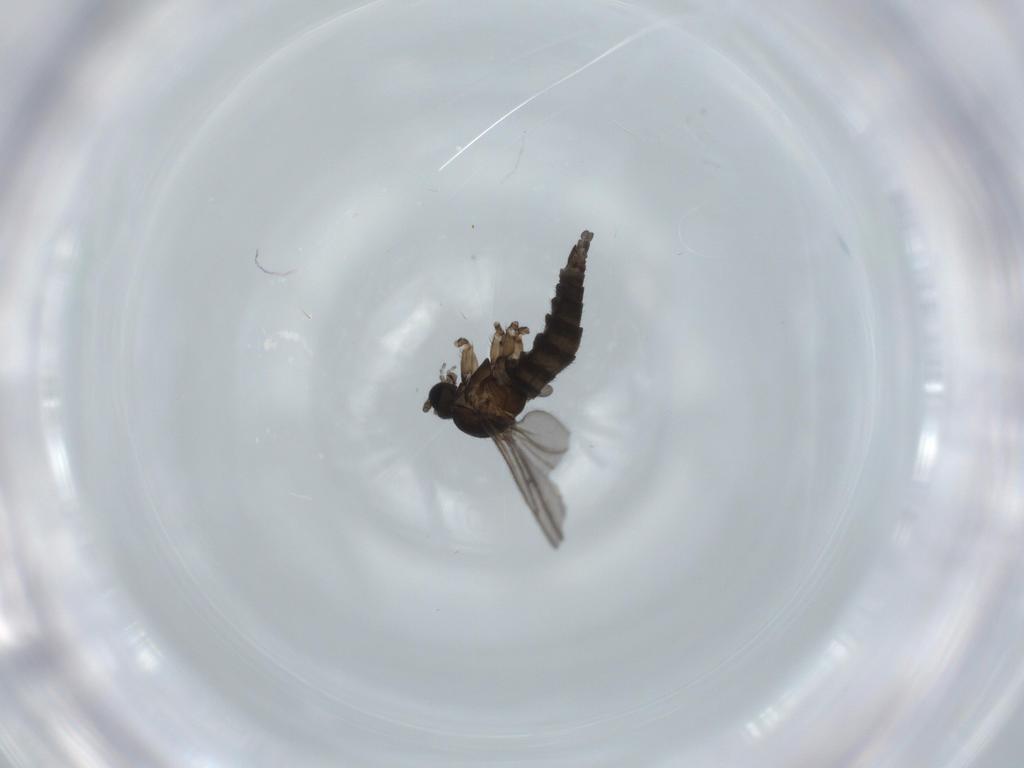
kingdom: Animalia
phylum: Arthropoda
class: Insecta
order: Diptera
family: Sciaridae
